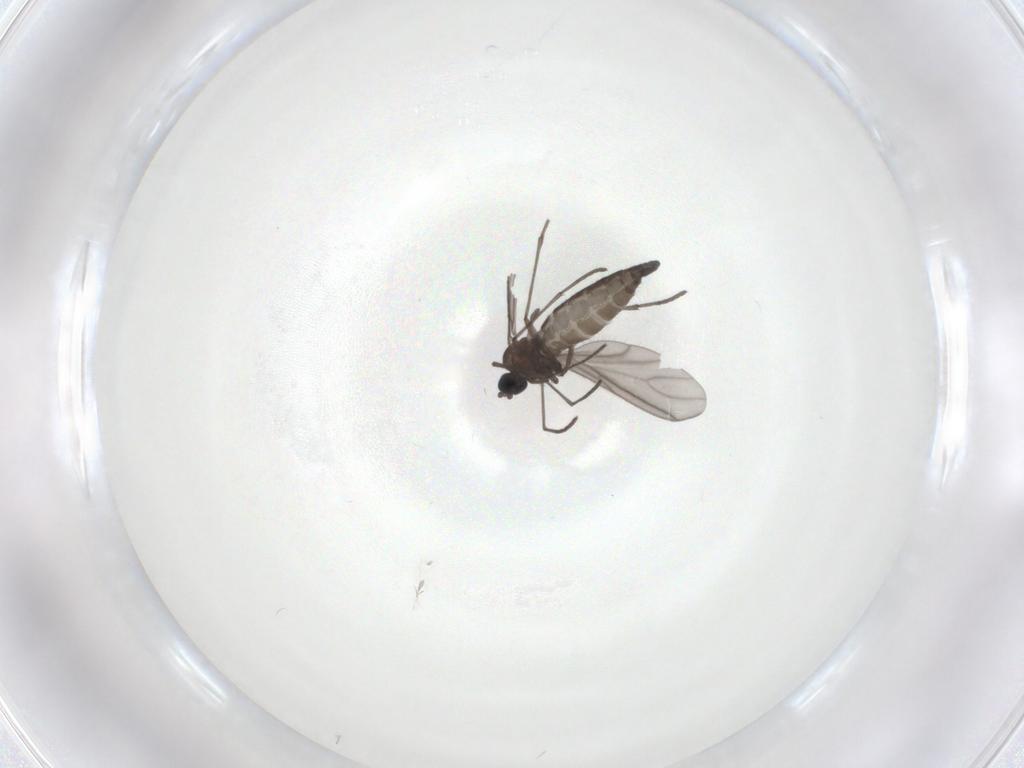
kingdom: Animalia
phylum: Arthropoda
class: Insecta
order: Diptera
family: Sciaridae
